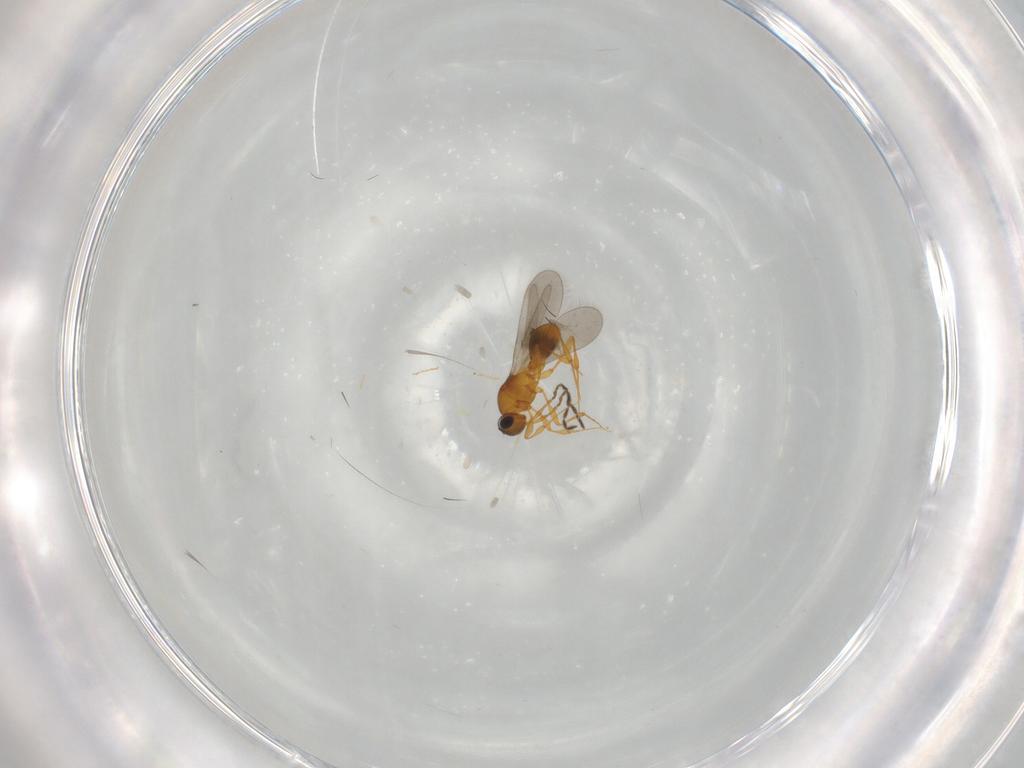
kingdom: Animalia
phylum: Arthropoda
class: Insecta
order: Hymenoptera
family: Platygastridae
